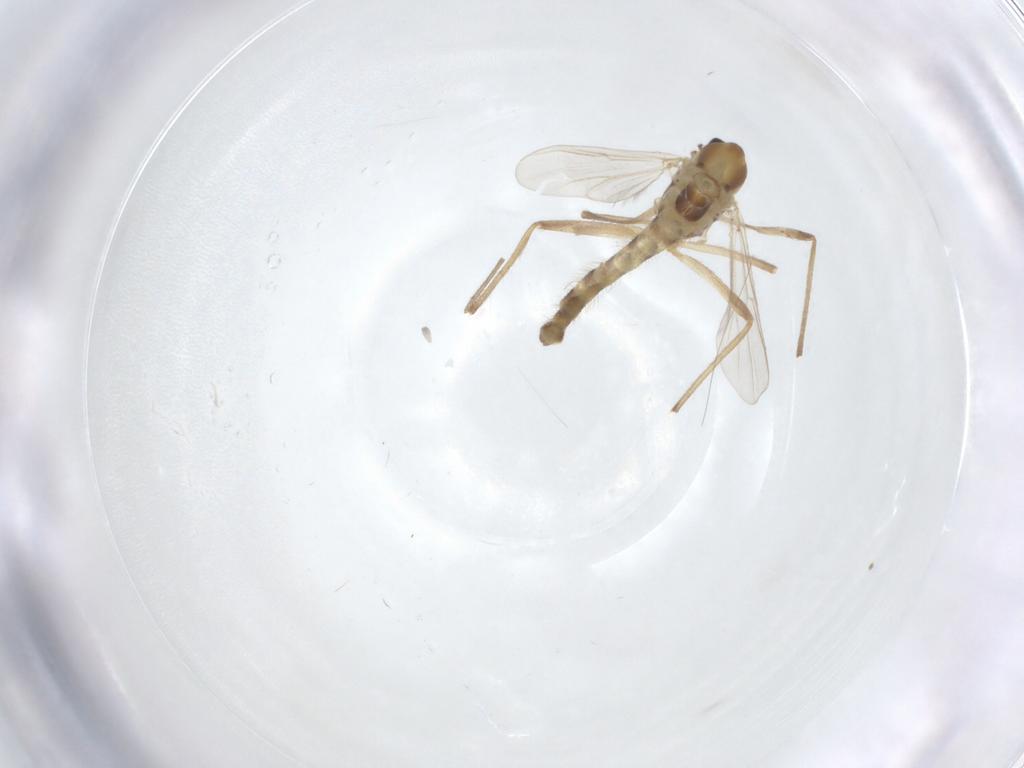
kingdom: Animalia
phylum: Arthropoda
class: Insecta
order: Diptera
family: Chironomidae
